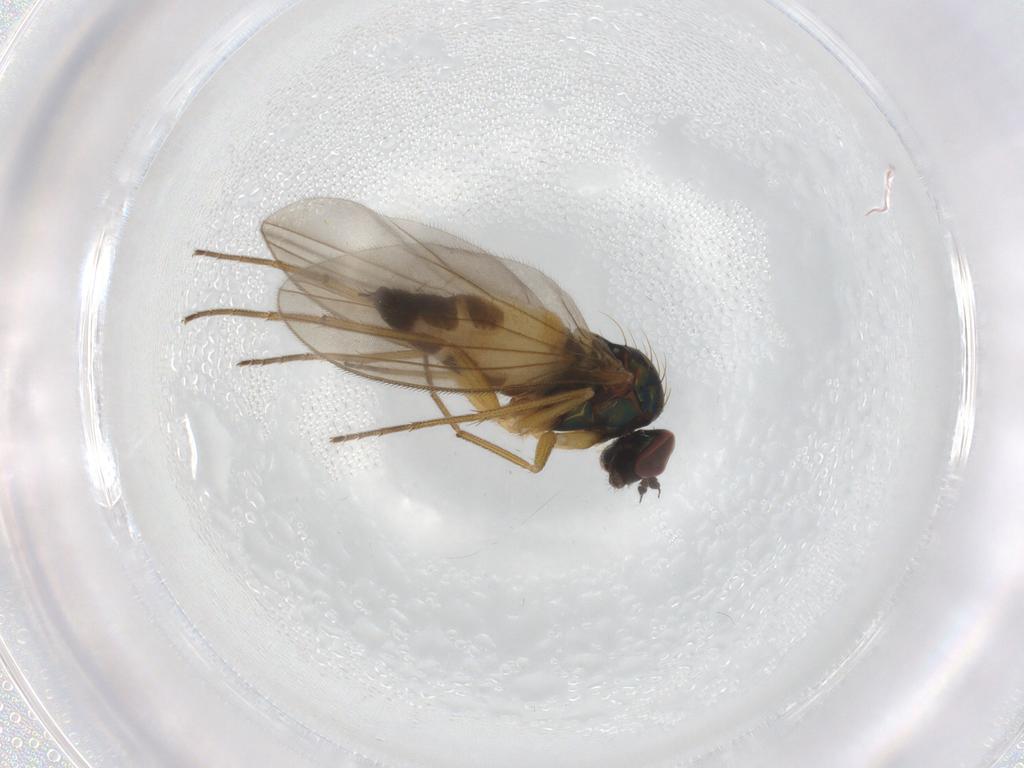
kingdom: Animalia
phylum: Arthropoda
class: Insecta
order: Diptera
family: Dolichopodidae
